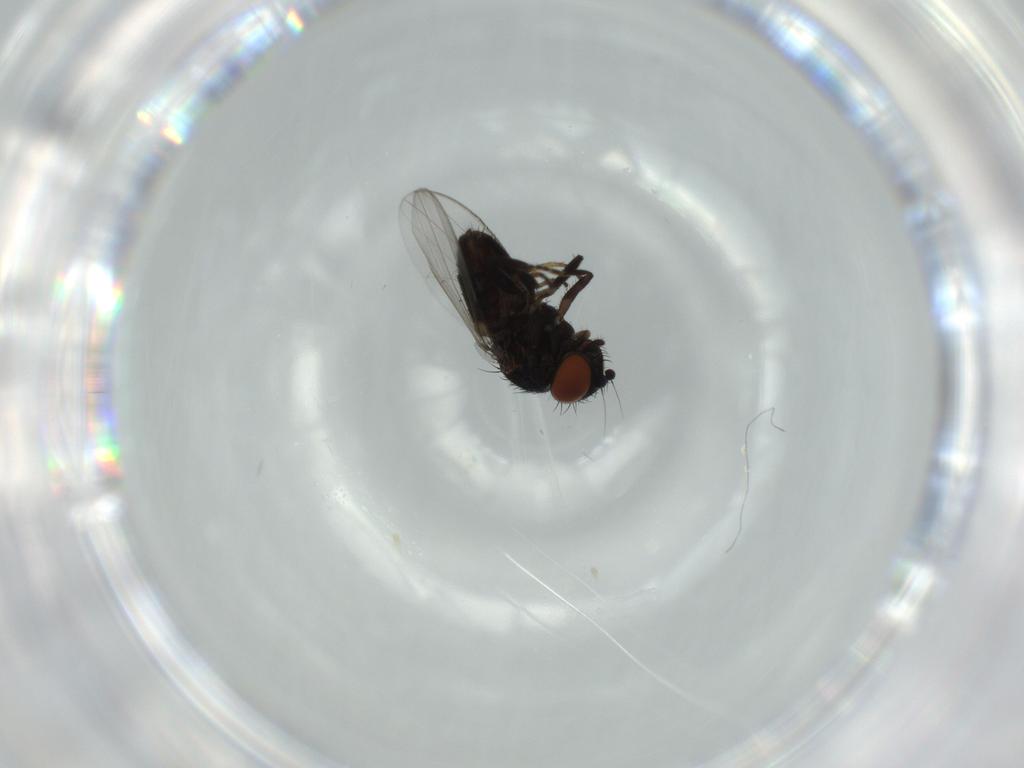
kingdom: Animalia
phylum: Arthropoda
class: Insecta
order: Diptera
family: Milichiidae
